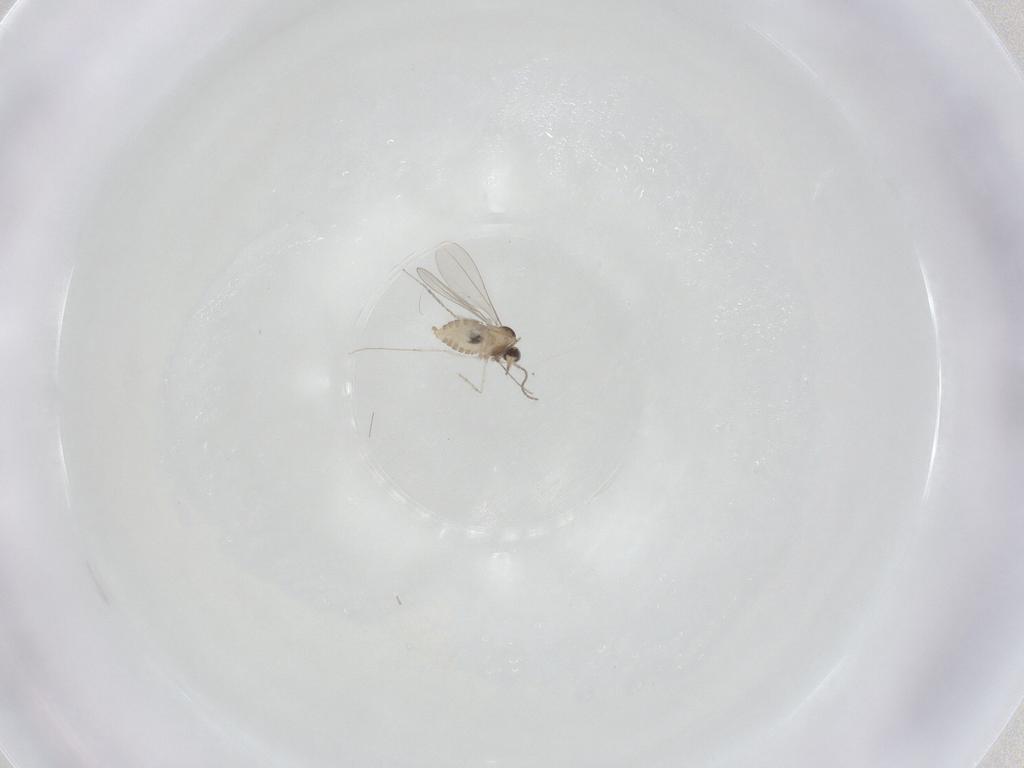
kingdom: Animalia
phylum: Arthropoda
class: Insecta
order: Diptera
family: Cecidomyiidae
